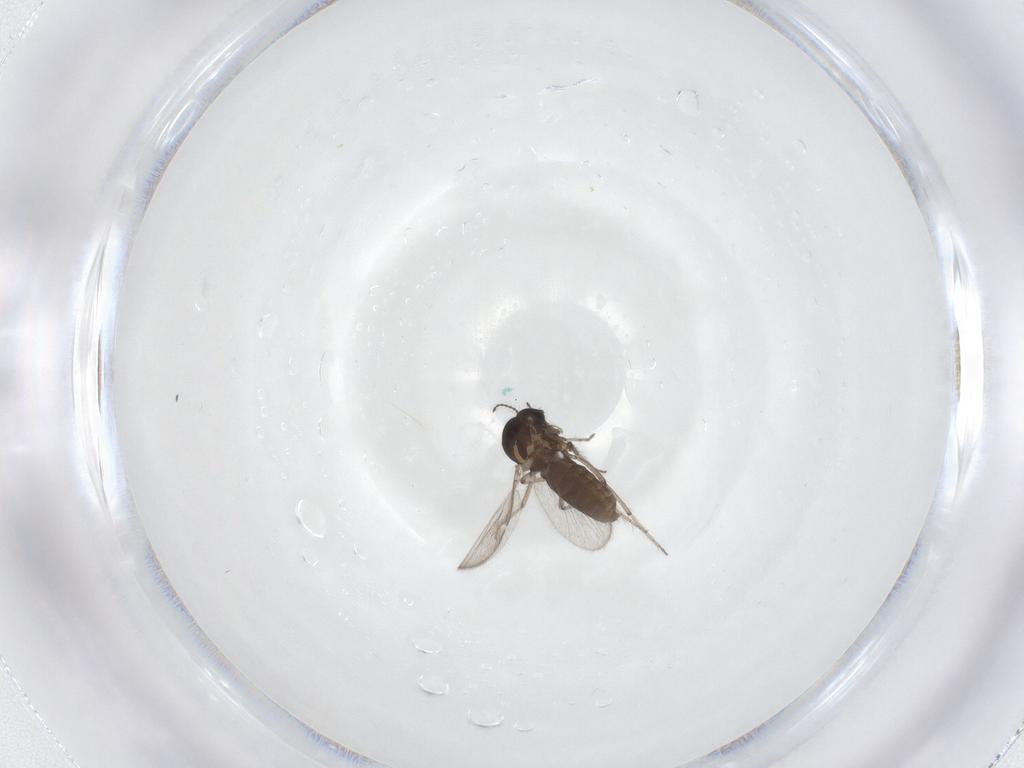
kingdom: Animalia
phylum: Arthropoda
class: Insecta
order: Diptera
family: Ceratopogonidae
